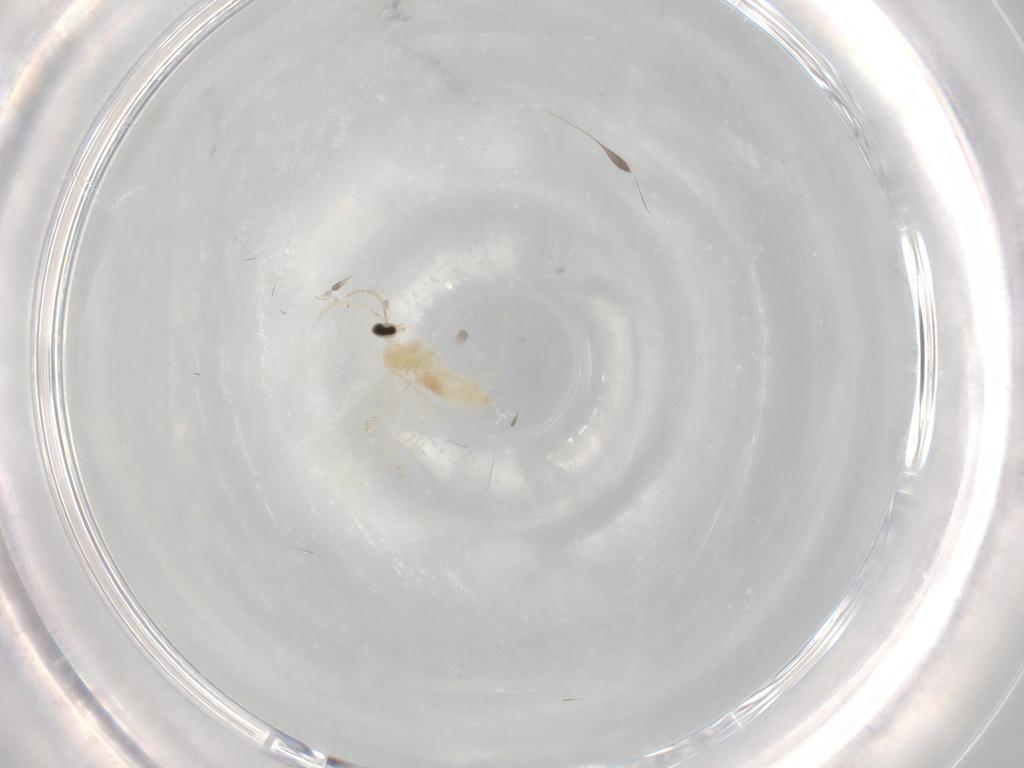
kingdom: Animalia
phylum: Arthropoda
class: Insecta
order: Diptera
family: Cecidomyiidae
